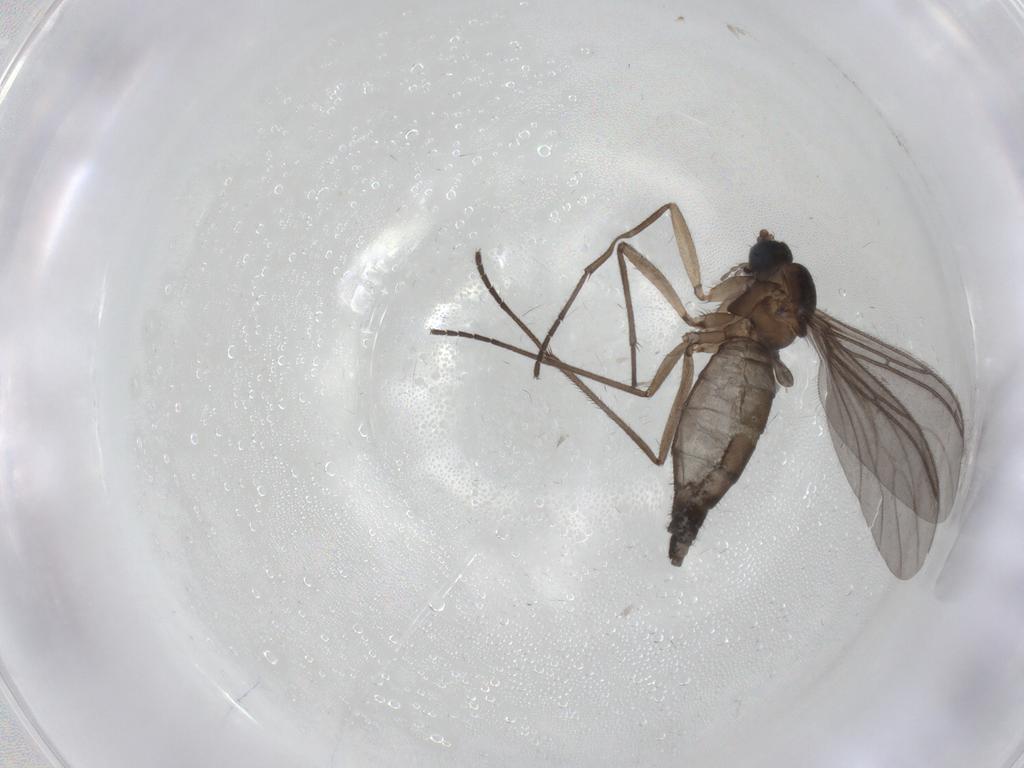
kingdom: Animalia
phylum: Arthropoda
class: Insecta
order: Diptera
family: Sciaridae
